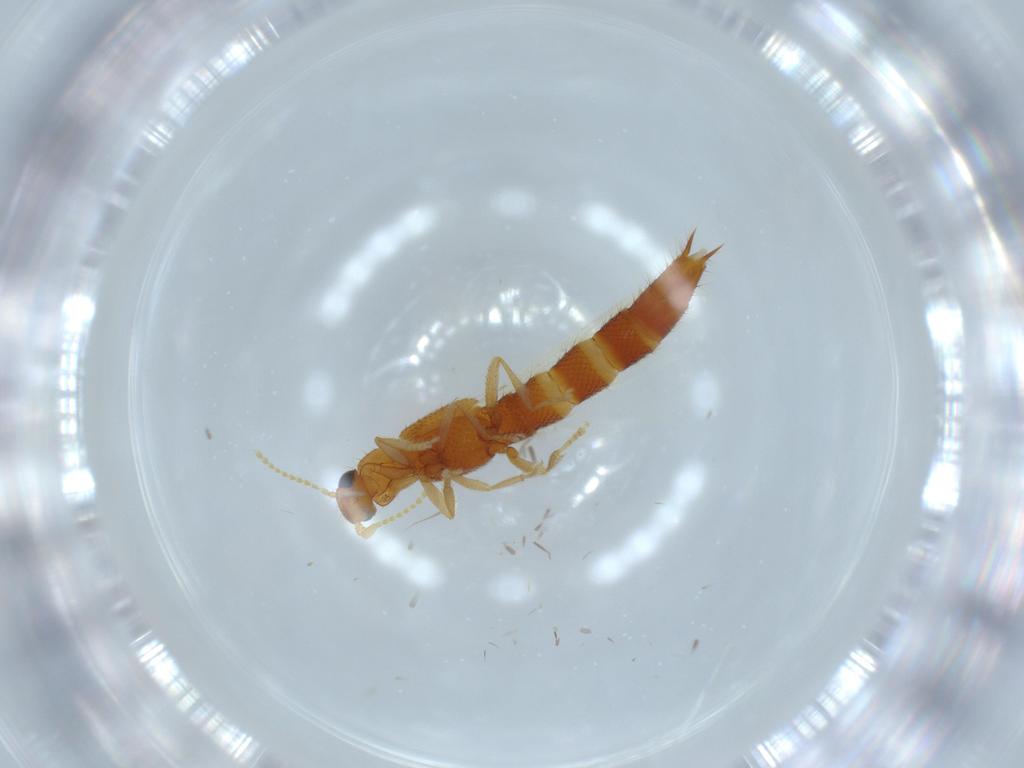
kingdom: Animalia
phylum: Arthropoda
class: Insecta
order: Coleoptera
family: Staphylinidae
